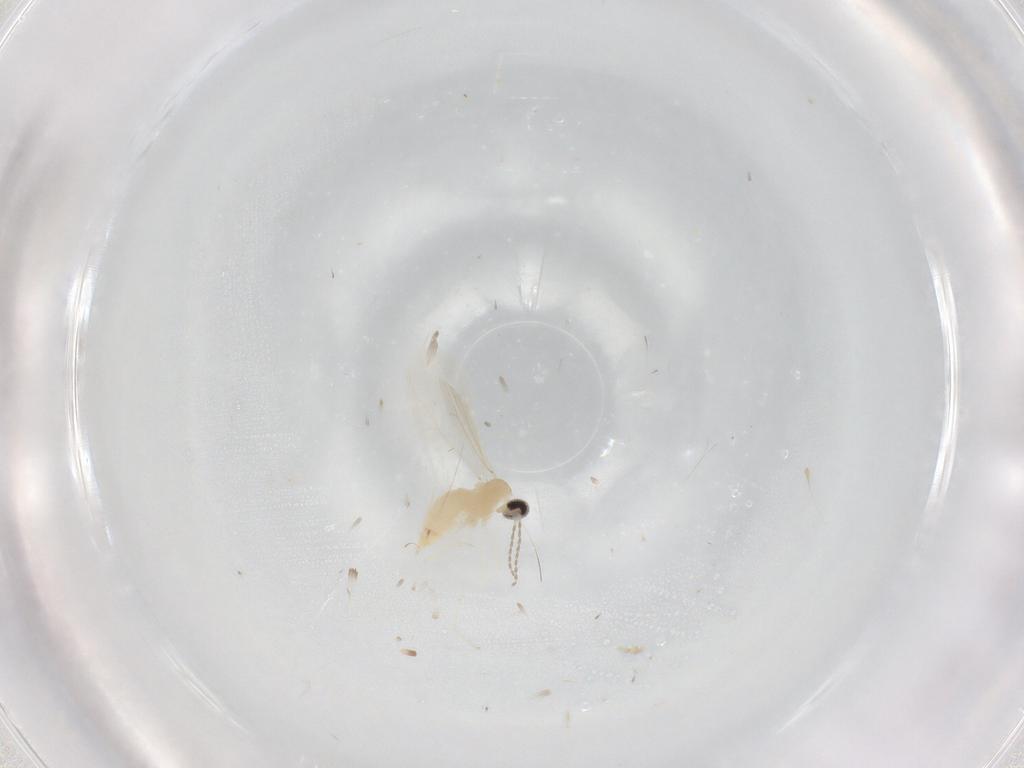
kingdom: Animalia
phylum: Arthropoda
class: Insecta
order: Diptera
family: Cecidomyiidae
